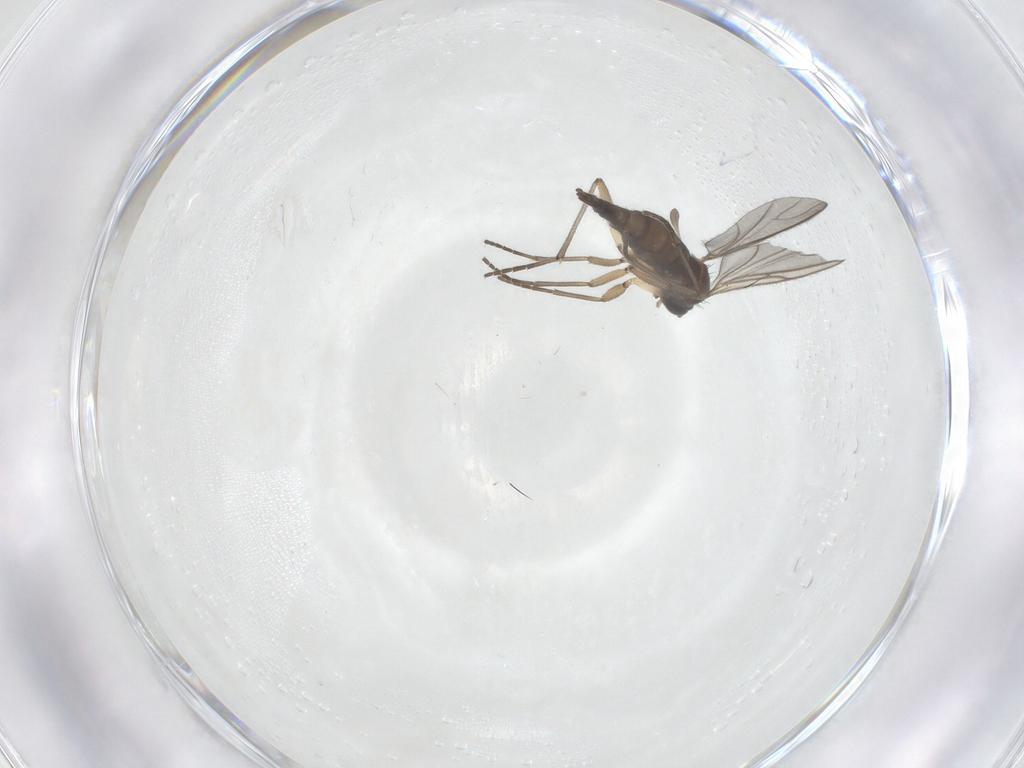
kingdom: Animalia
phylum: Arthropoda
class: Insecta
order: Diptera
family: Sciaridae
